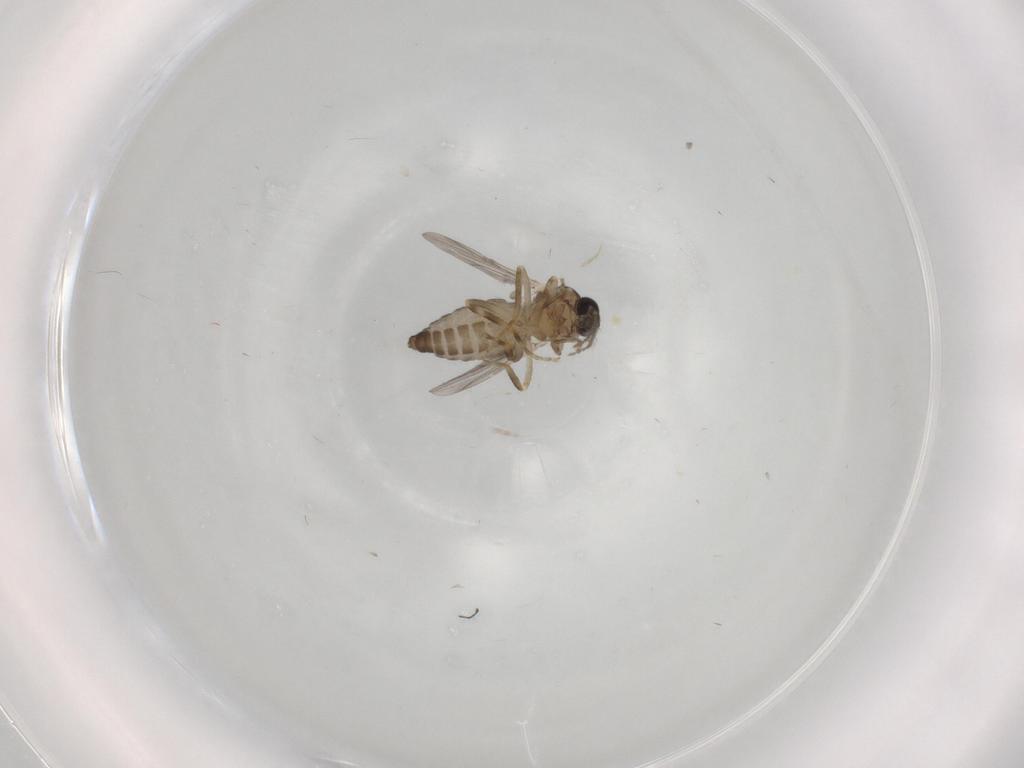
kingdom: Animalia
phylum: Arthropoda
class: Insecta
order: Diptera
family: Ceratopogonidae
